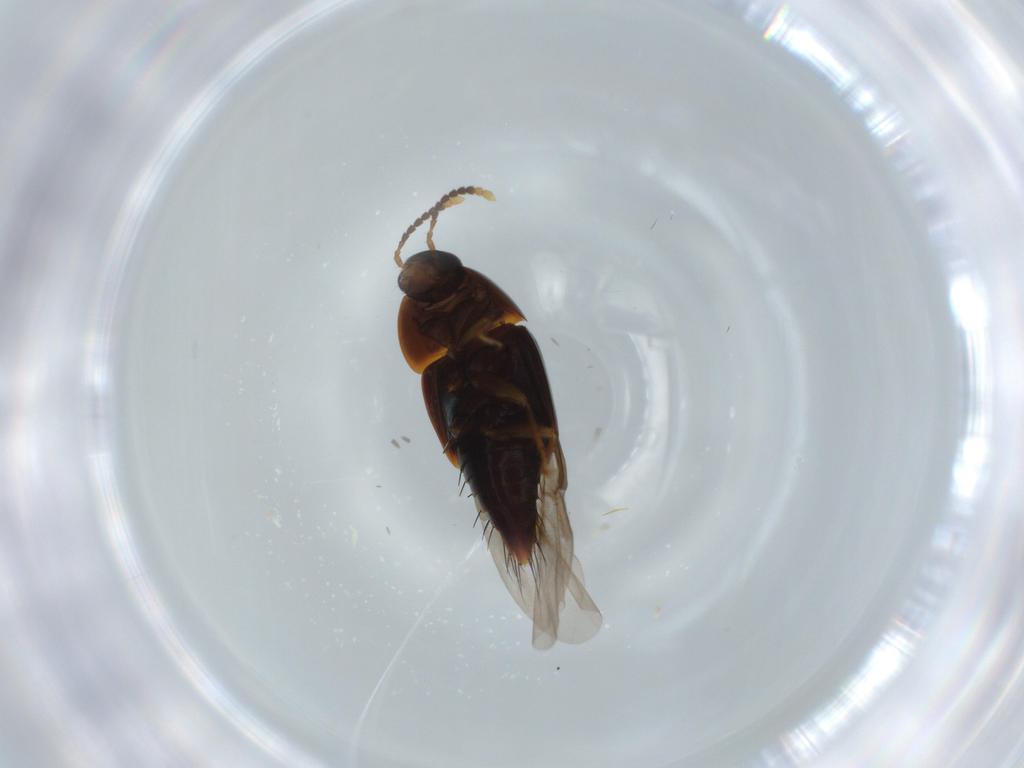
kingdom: Animalia
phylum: Arthropoda
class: Insecta
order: Coleoptera
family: Staphylinidae
